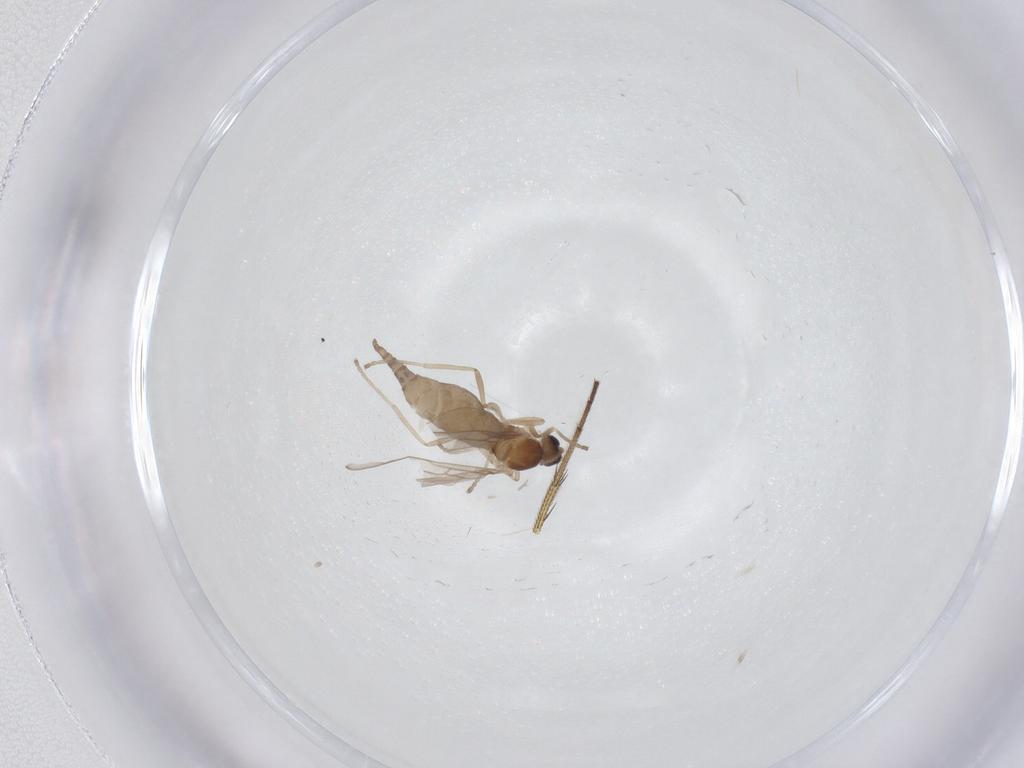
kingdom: Animalia
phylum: Arthropoda
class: Insecta
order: Diptera
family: Cecidomyiidae
